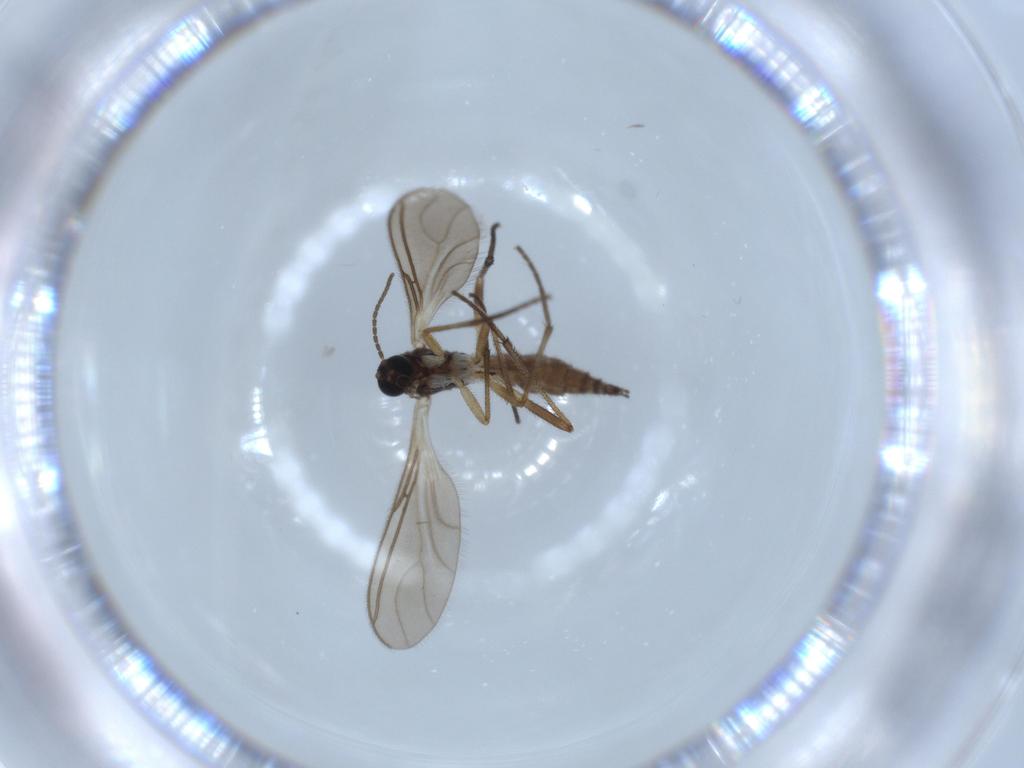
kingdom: Animalia
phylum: Arthropoda
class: Insecta
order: Diptera
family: Sciaridae
